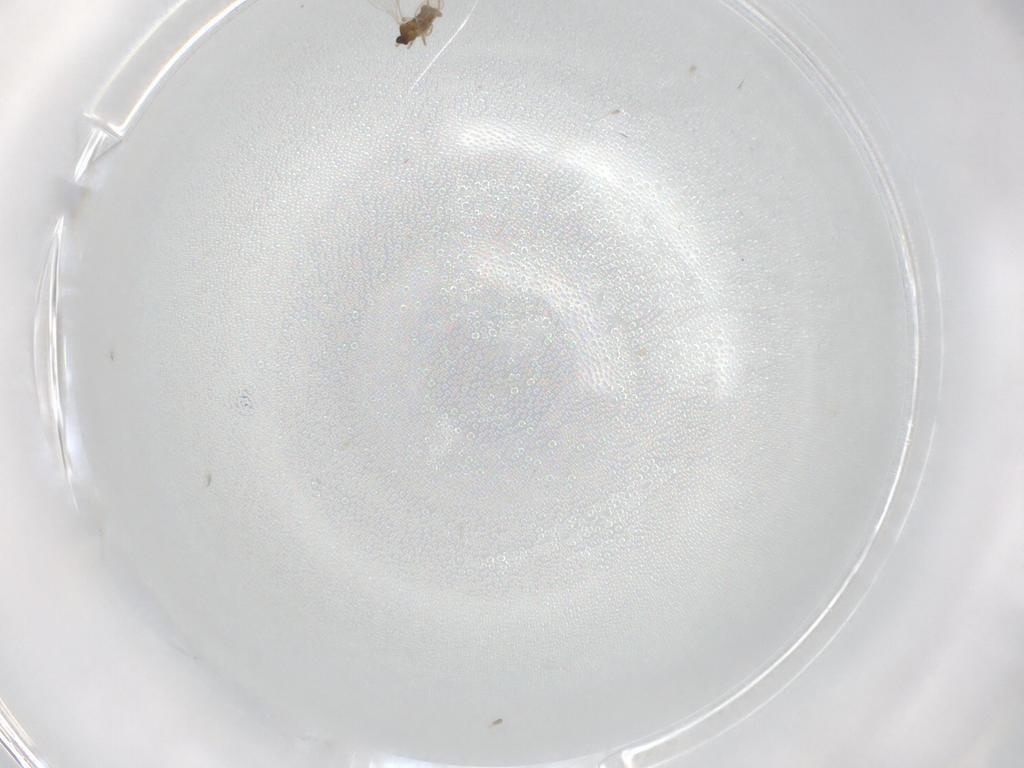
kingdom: Animalia
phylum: Arthropoda
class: Insecta
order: Diptera
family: Cecidomyiidae
